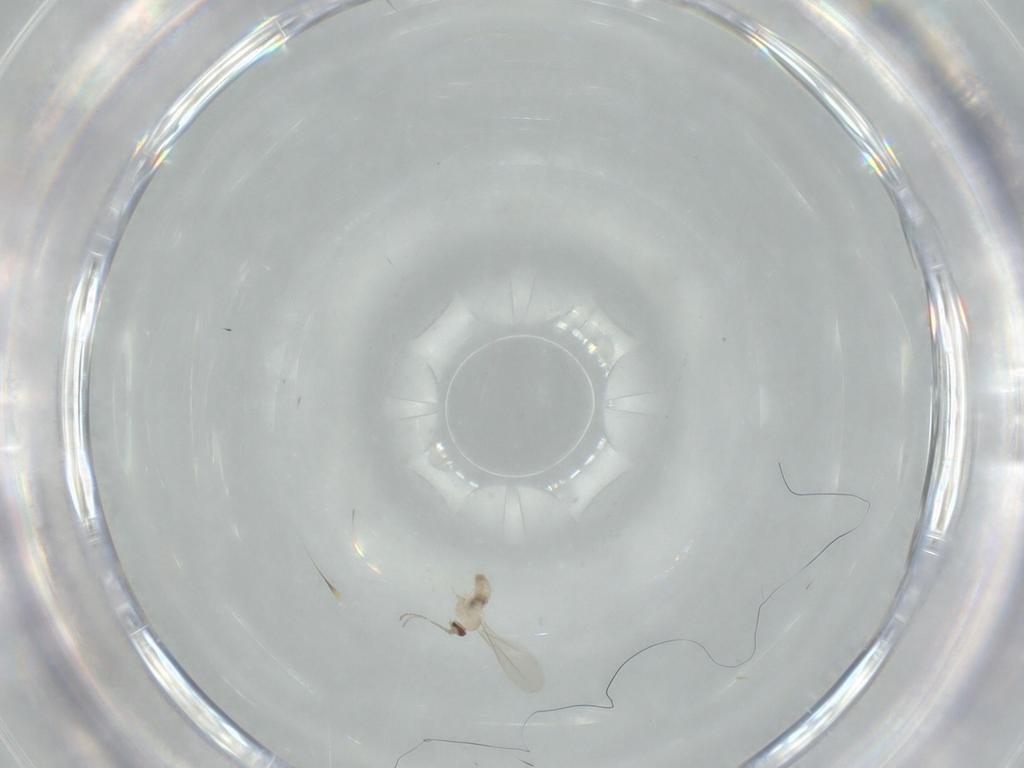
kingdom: Animalia
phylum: Arthropoda
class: Insecta
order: Diptera
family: Cecidomyiidae
